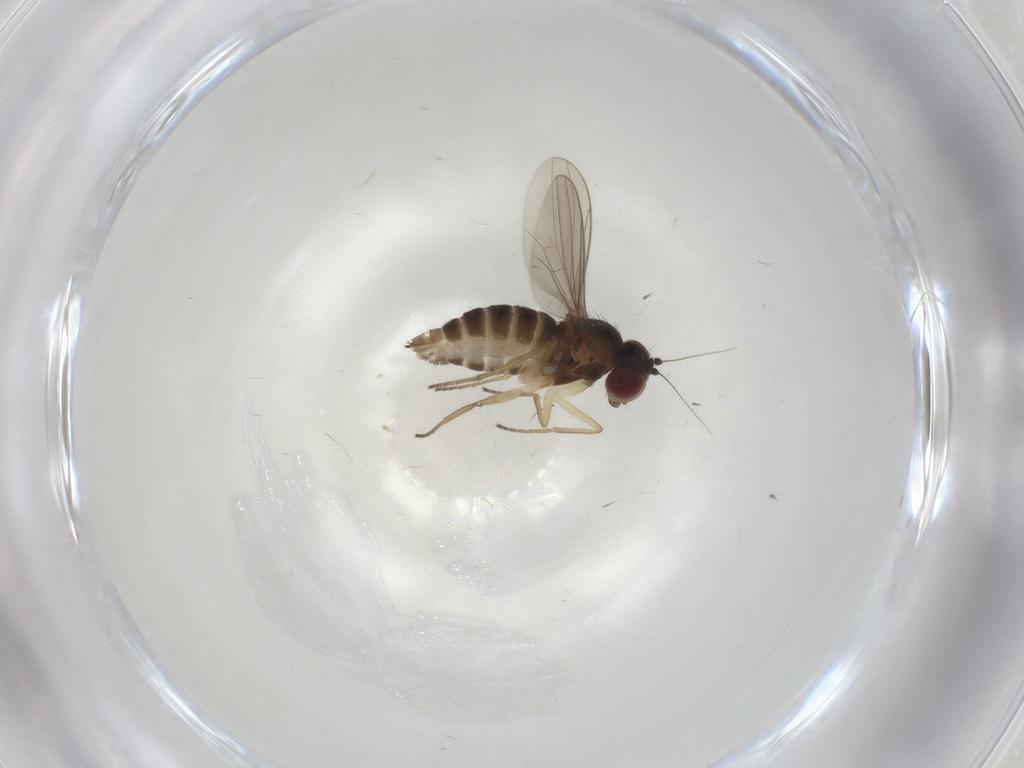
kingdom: Animalia
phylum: Arthropoda
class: Insecta
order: Diptera
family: Dolichopodidae
